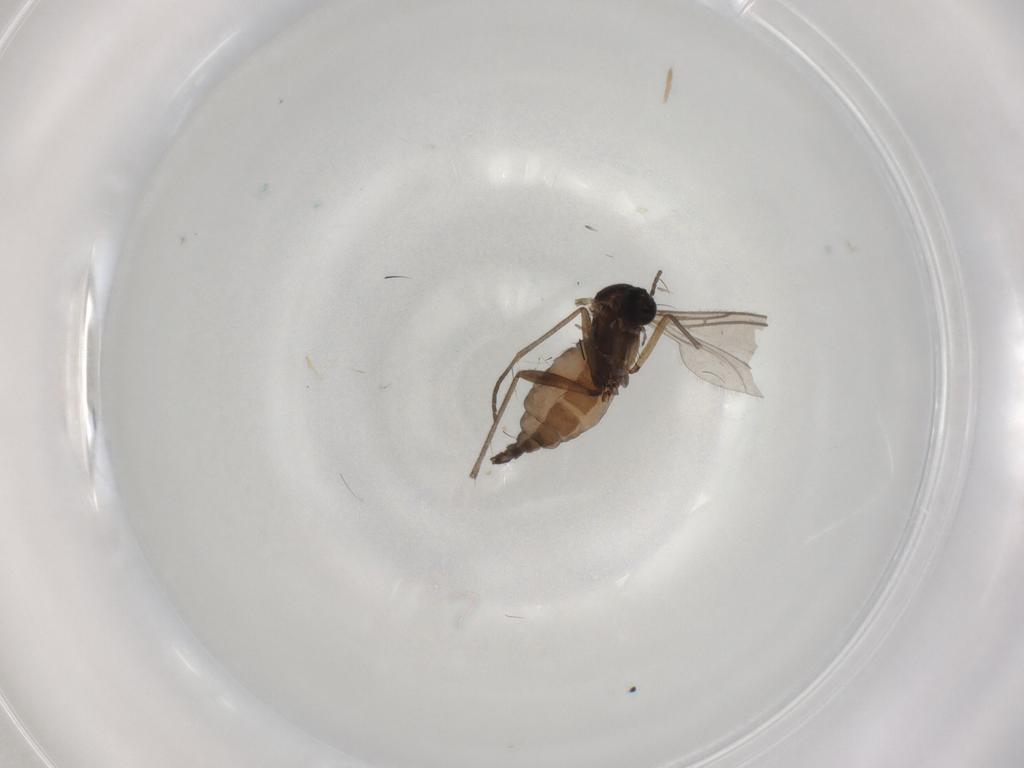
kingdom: Animalia
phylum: Arthropoda
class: Insecta
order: Diptera
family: Sciaridae
